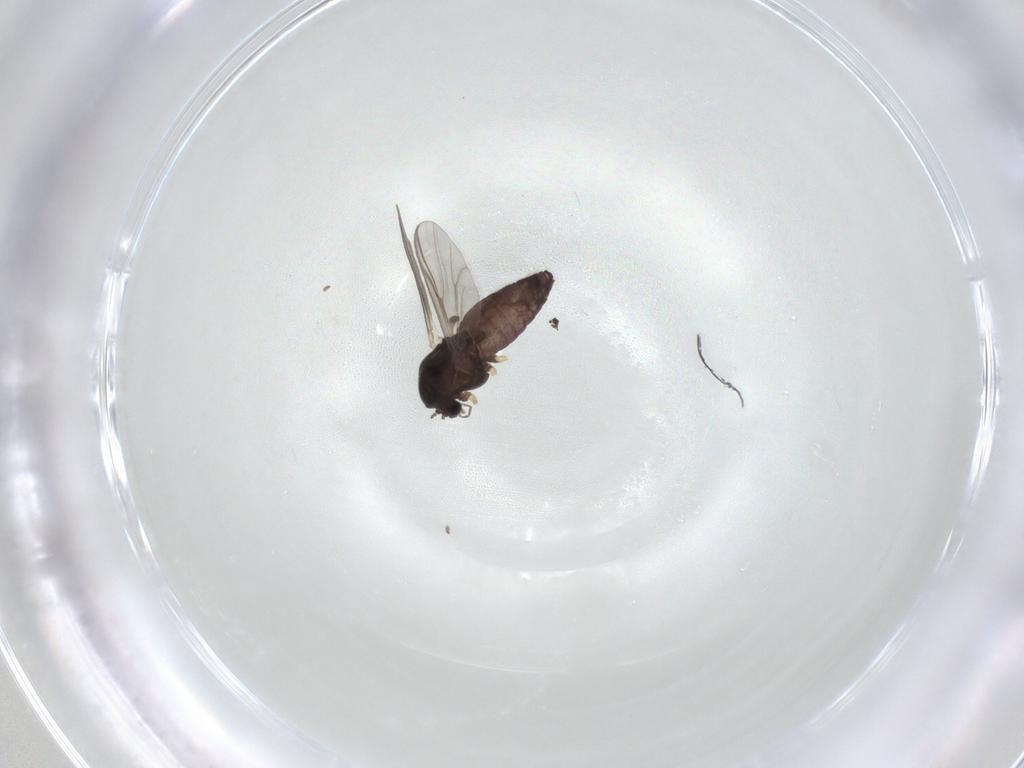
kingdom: Animalia
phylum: Arthropoda
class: Insecta
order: Diptera
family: Chironomidae
